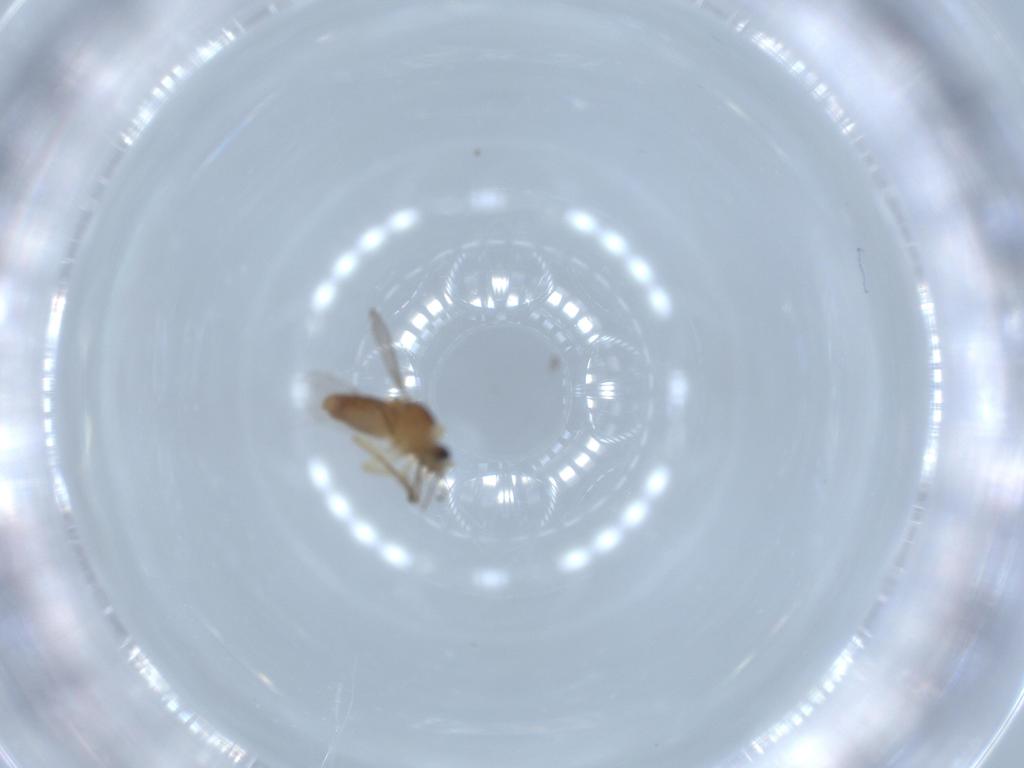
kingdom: Animalia
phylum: Arthropoda
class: Insecta
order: Diptera
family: Ceratopogonidae
